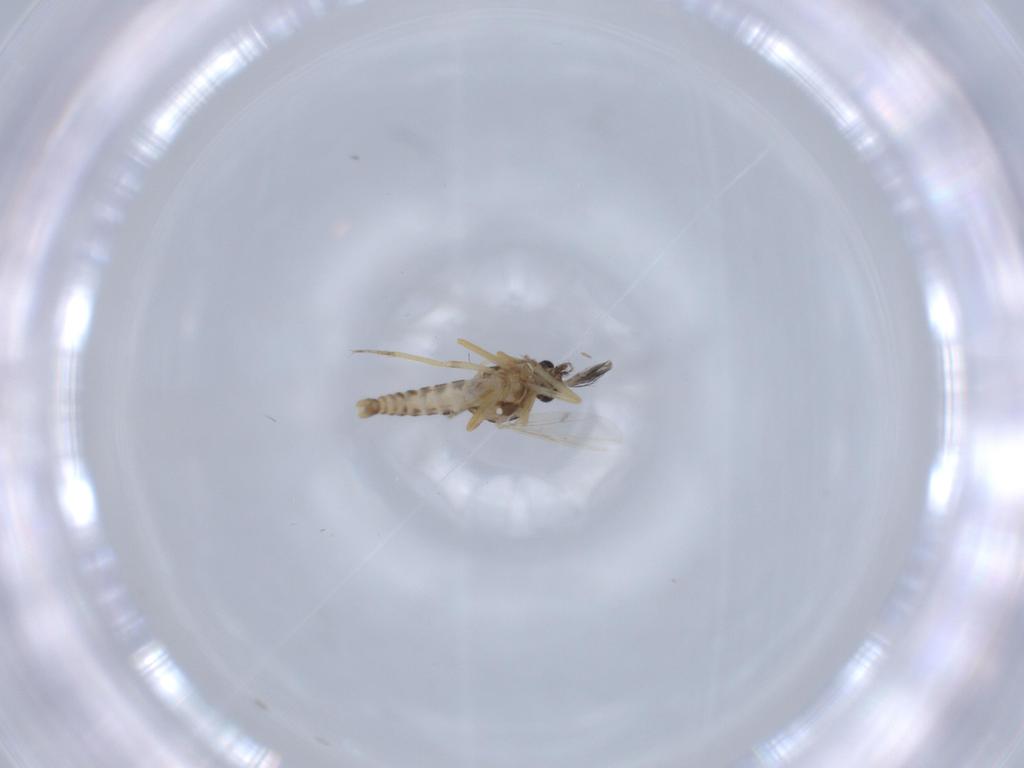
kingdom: Animalia
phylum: Arthropoda
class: Insecta
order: Diptera
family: Ceratopogonidae
